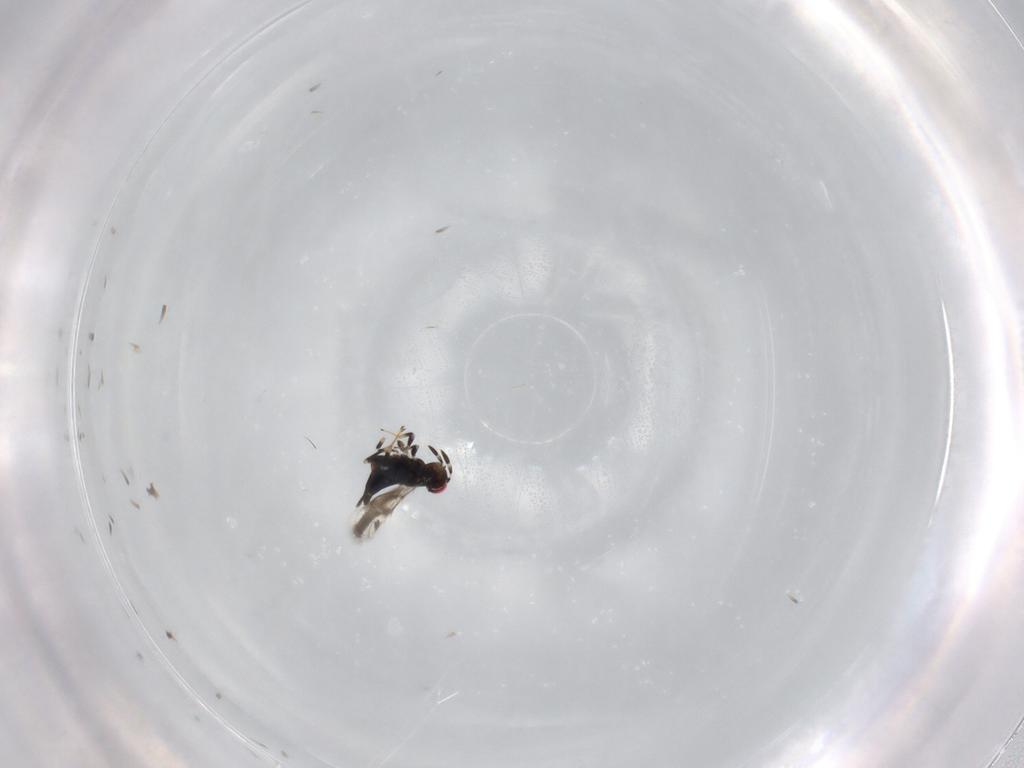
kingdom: Animalia
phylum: Arthropoda
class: Insecta
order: Hymenoptera
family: Azotidae
